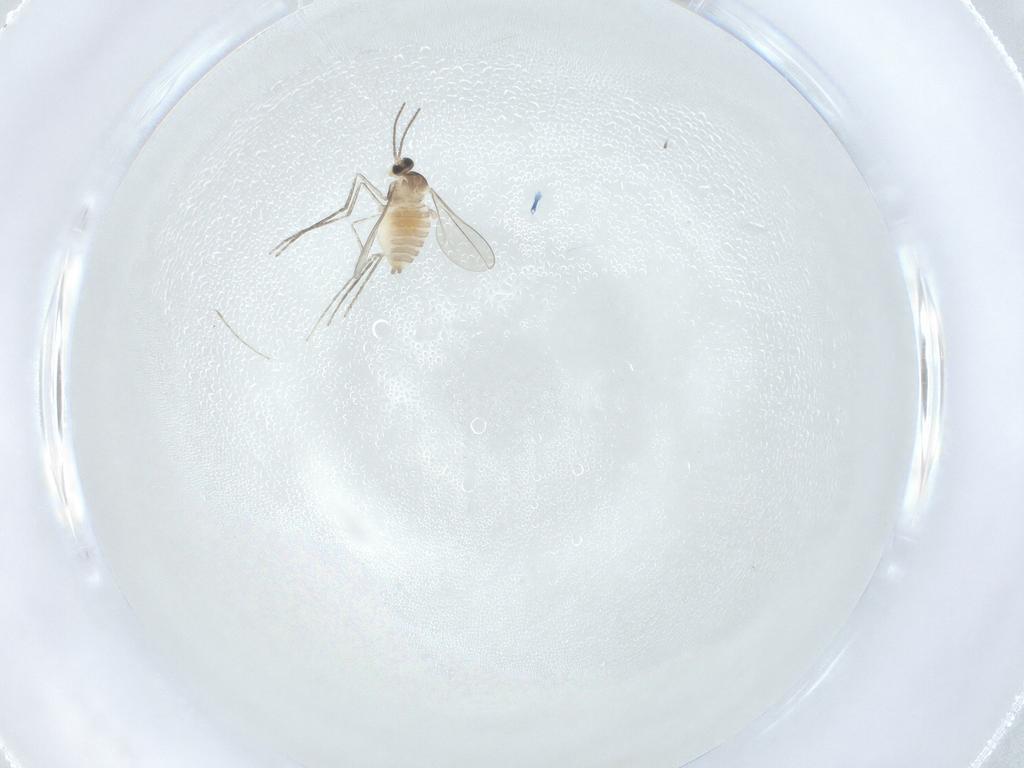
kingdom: Animalia
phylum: Arthropoda
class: Insecta
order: Diptera
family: Cecidomyiidae
